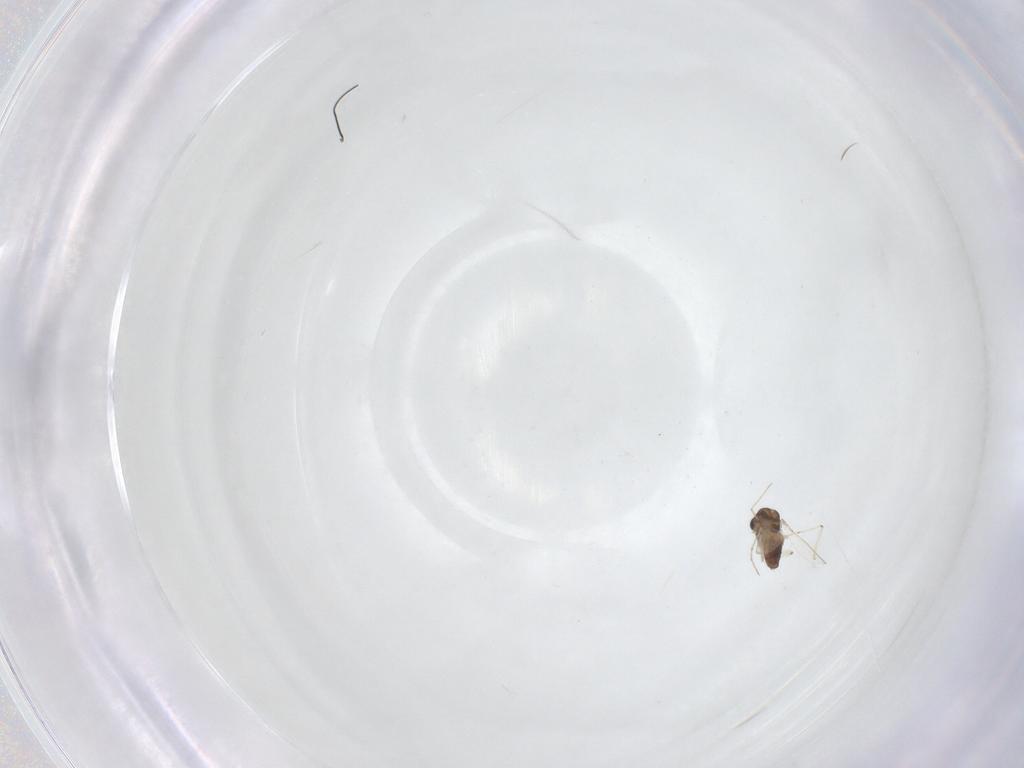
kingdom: Animalia
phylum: Arthropoda
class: Insecta
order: Diptera
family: Chironomidae
